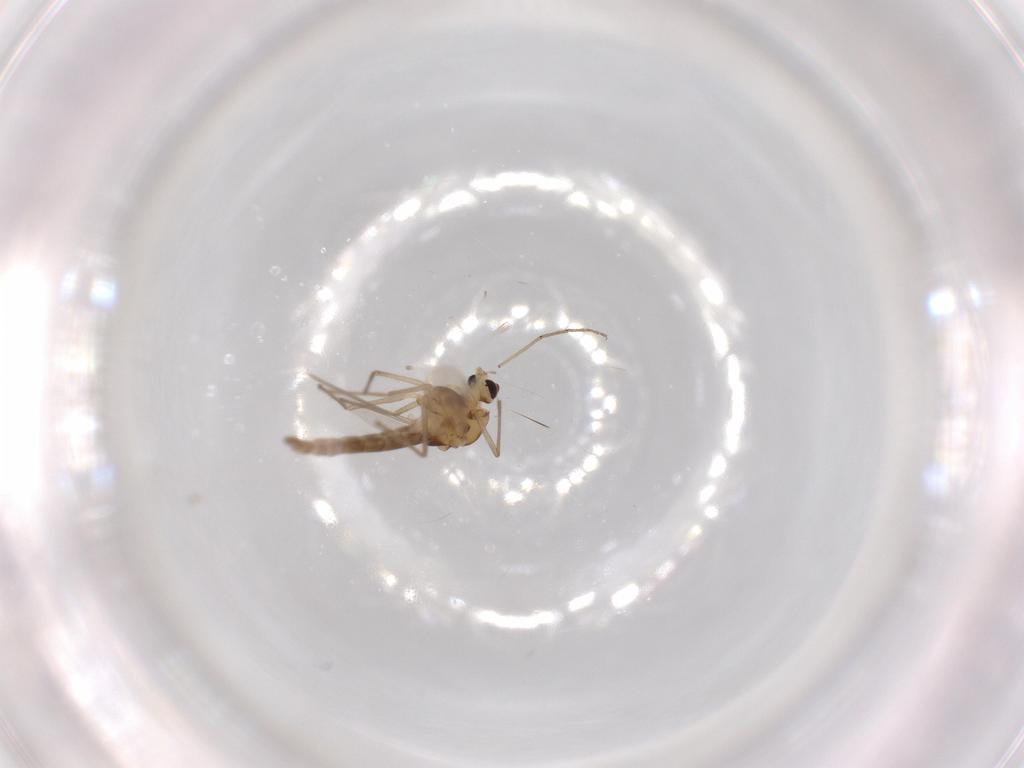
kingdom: Animalia
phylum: Arthropoda
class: Insecta
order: Diptera
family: Chironomidae
